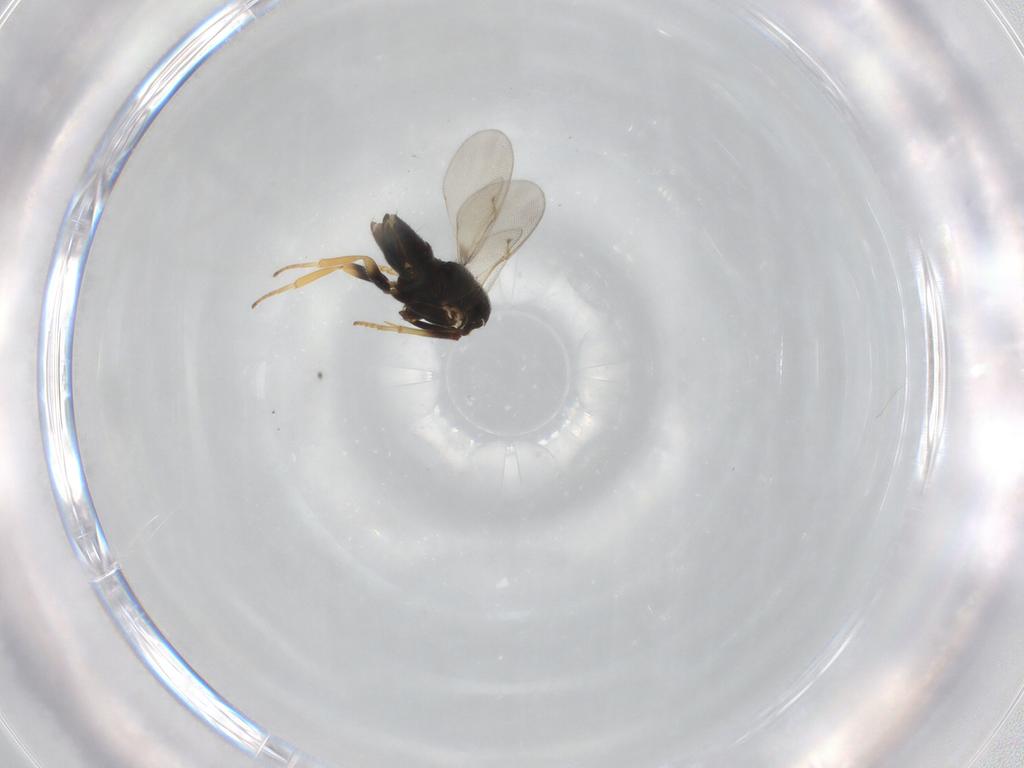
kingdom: Animalia
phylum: Arthropoda
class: Insecta
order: Hymenoptera
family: Encyrtidae
